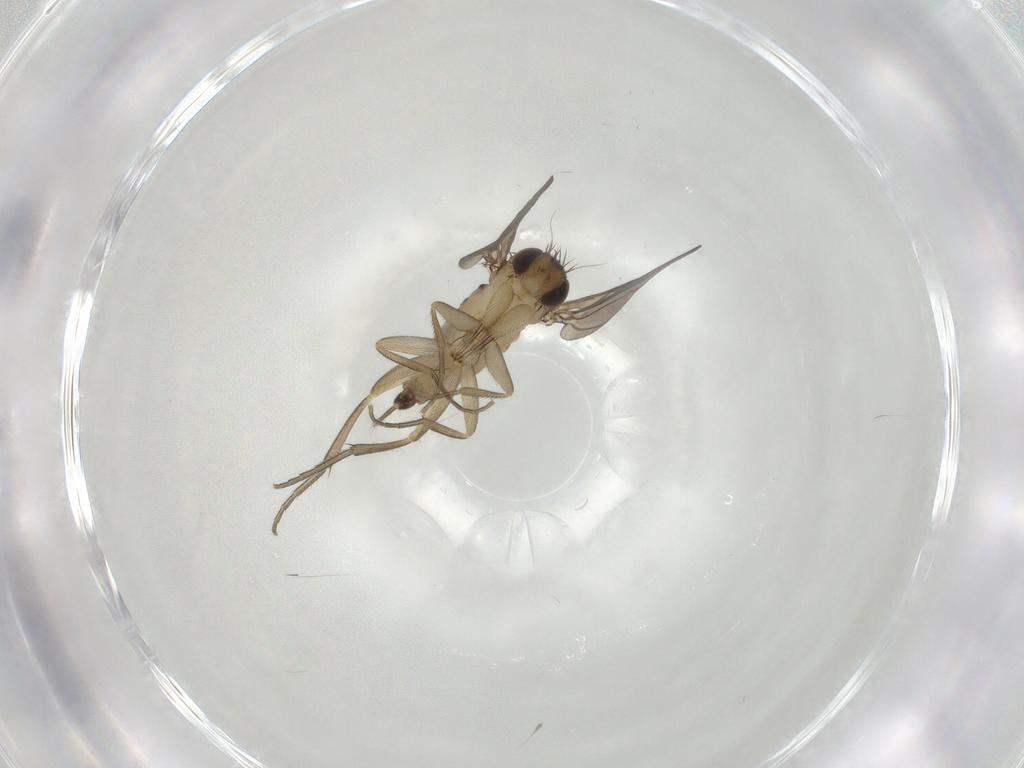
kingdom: Animalia
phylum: Arthropoda
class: Insecta
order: Diptera
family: Phoridae
